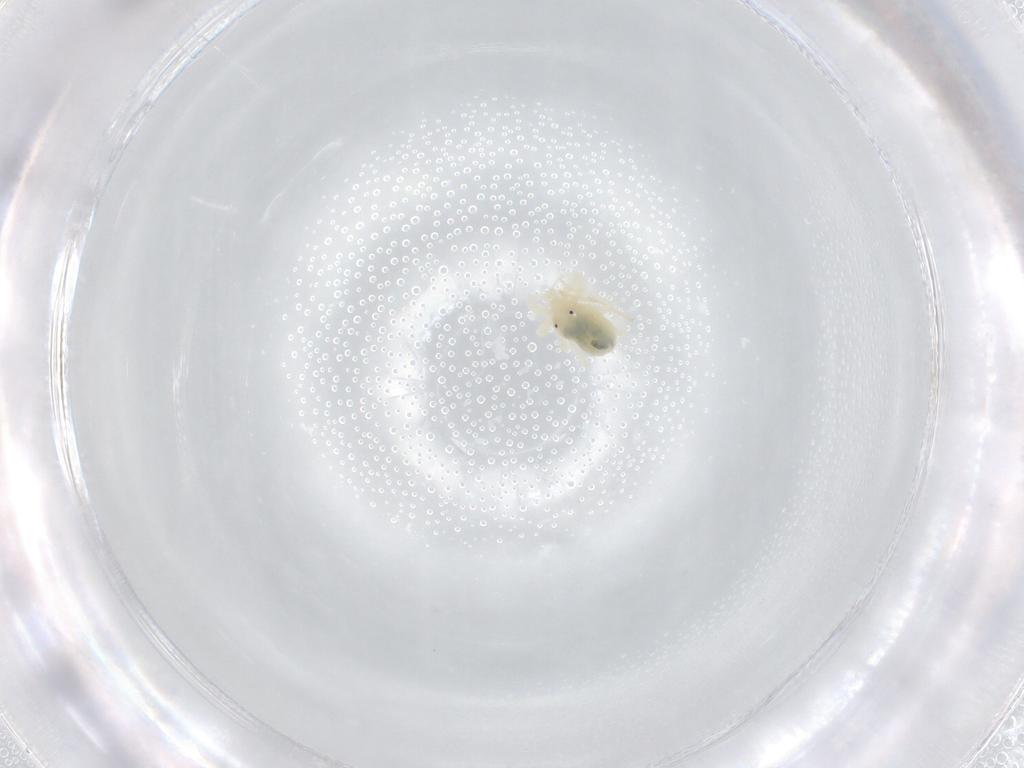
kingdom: Animalia
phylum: Arthropoda
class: Arachnida
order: Trombidiformes
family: Anystidae
